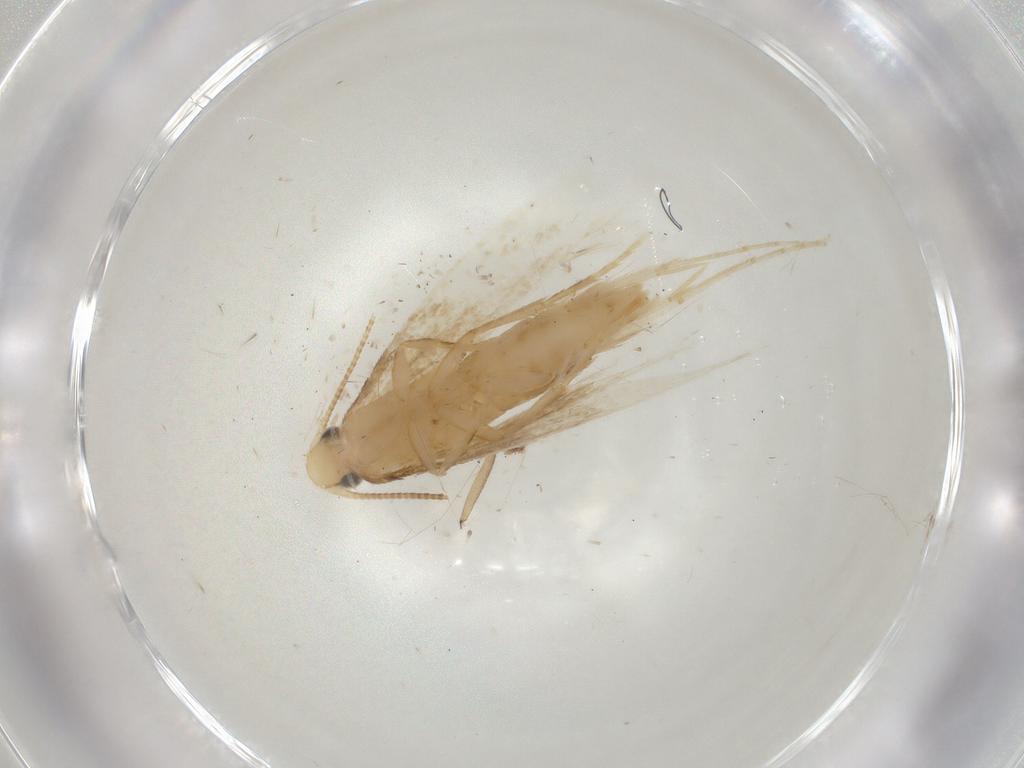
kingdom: Animalia
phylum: Arthropoda
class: Insecta
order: Lepidoptera
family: Tineidae
